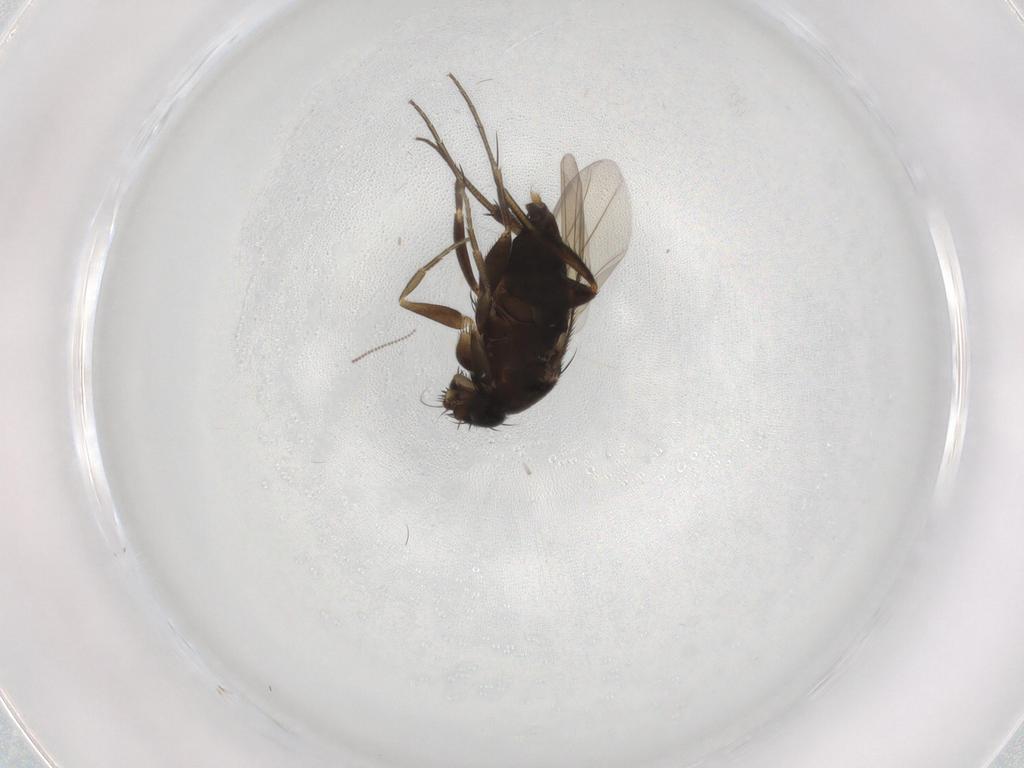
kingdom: Animalia
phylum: Arthropoda
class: Insecta
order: Diptera
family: Phoridae
